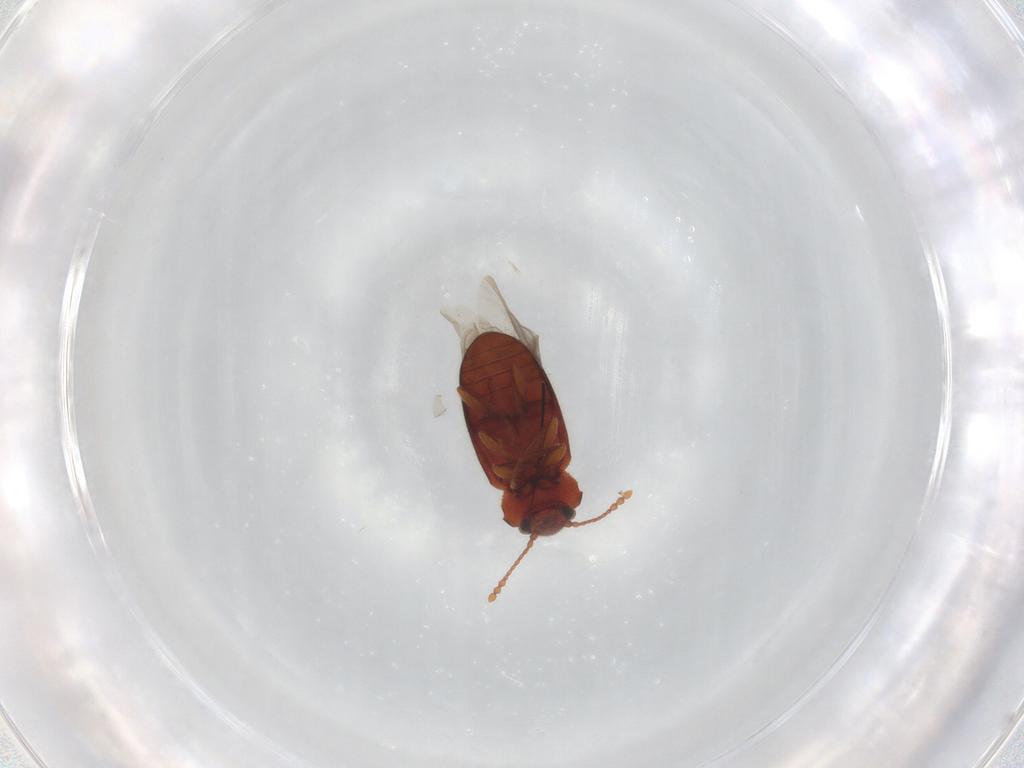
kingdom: Animalia
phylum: Arthropoda
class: Insecta
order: Coleoptera
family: Cryptophagidae
